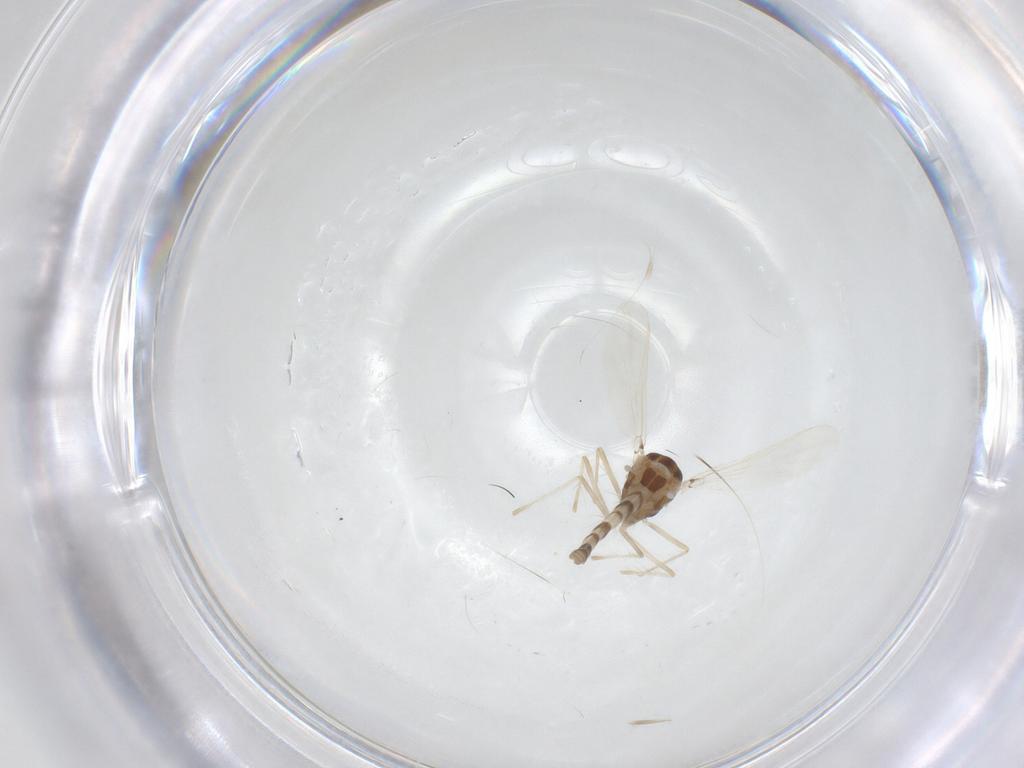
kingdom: Animalia
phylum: Arthropoda
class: Insecta
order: Diptera
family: Chironomidae
